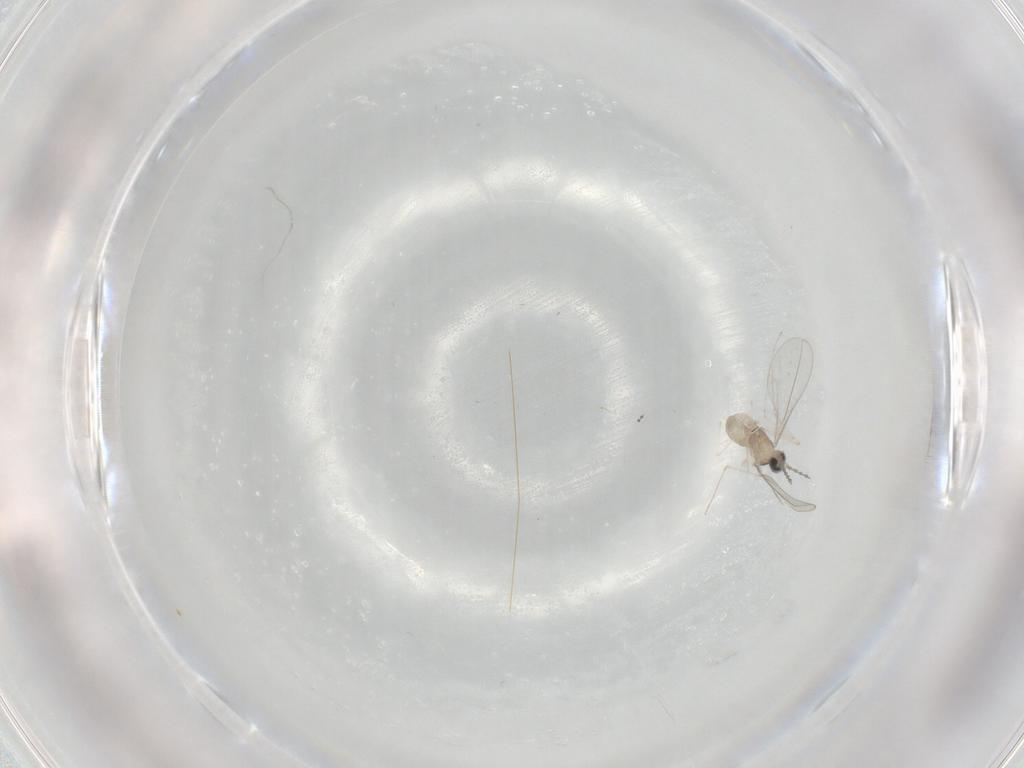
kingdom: Animalia
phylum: Arthropoda
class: Insecta
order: Diptera
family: Cecidomyiidae
